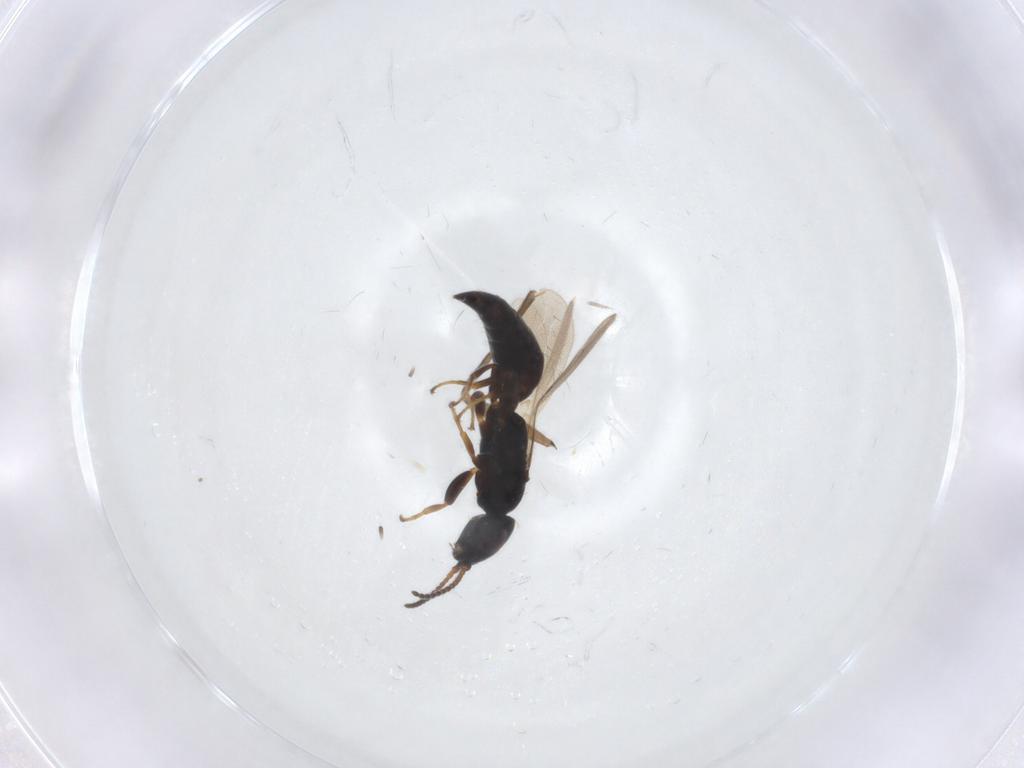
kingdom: Animalia
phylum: Arthropoda
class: Insecta
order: Hymenoptera
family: Bethylidae
